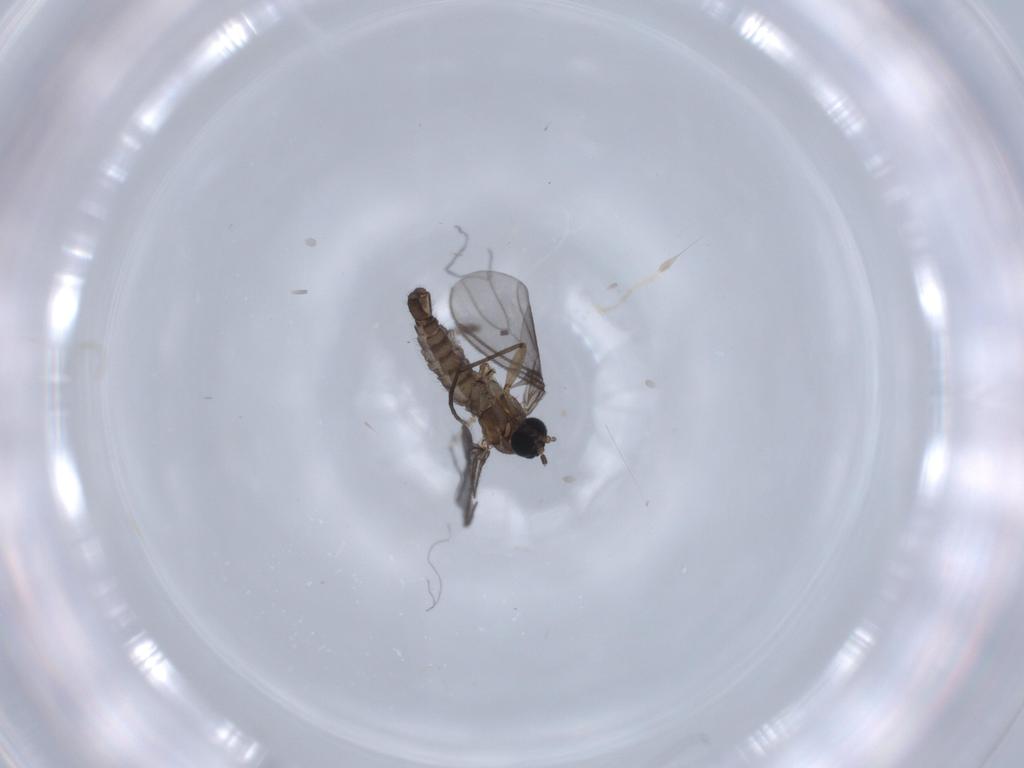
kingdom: Animalia
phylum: Arthropoda
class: Insecta
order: Diptera
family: Sciaridae
